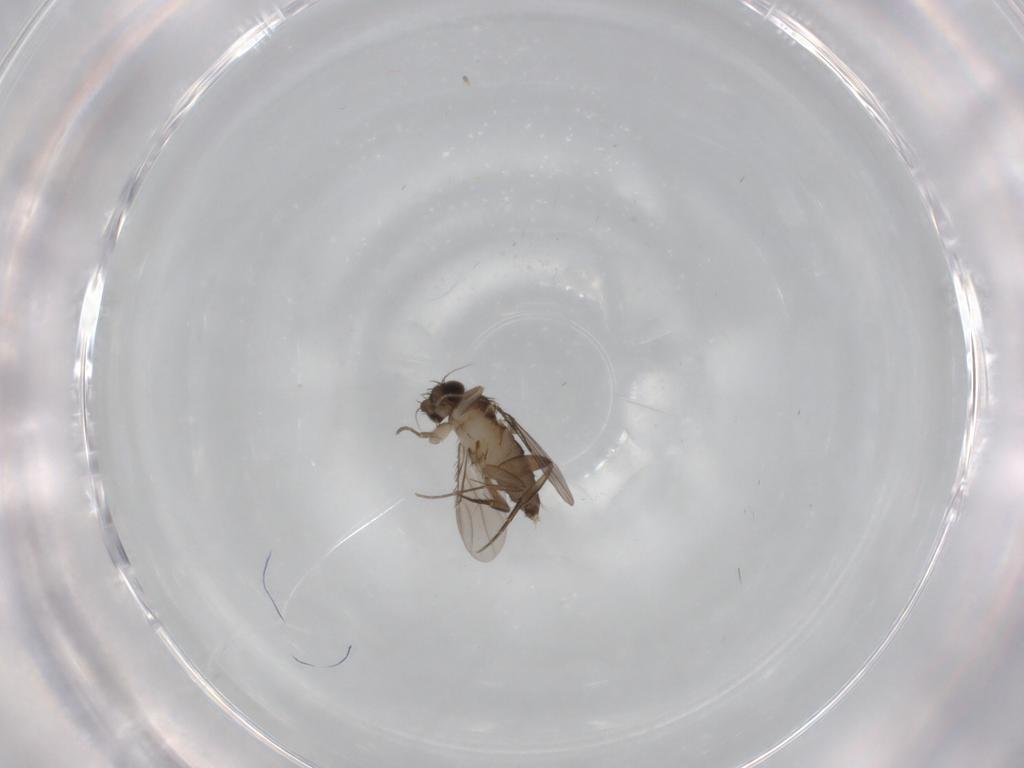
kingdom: Animalia
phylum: Arthropoda
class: Insecta
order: Diptera
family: Phoridae
